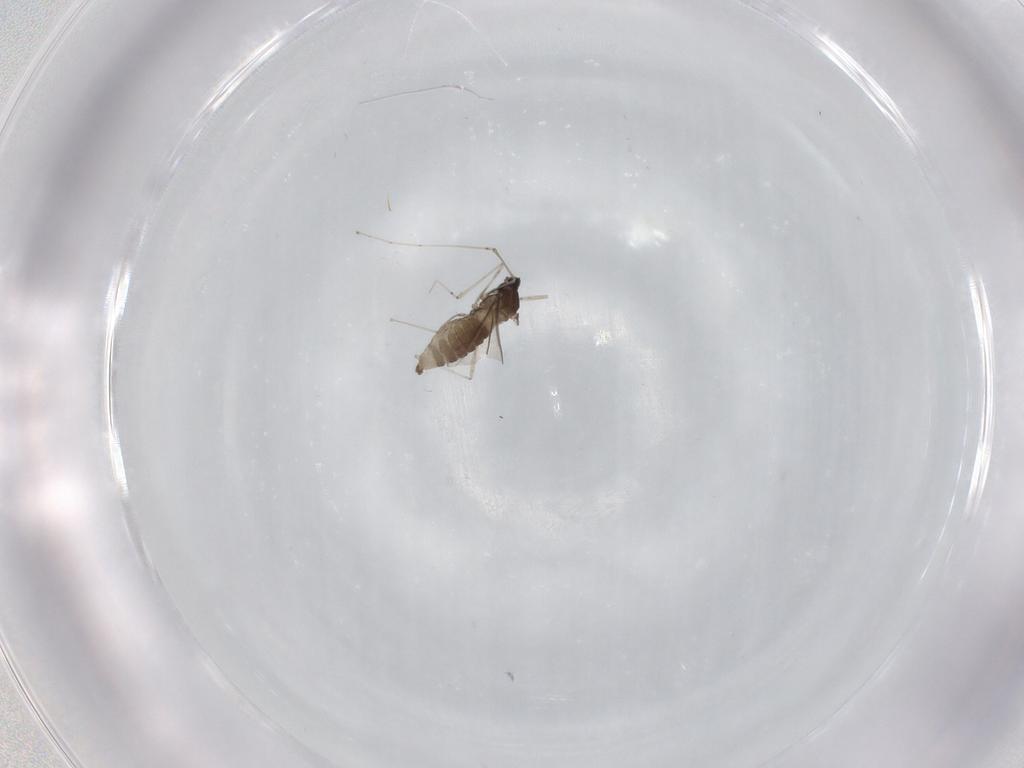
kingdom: Animalia
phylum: Arthropoda
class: Insecta
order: Diptera
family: Cecidomyiidae
